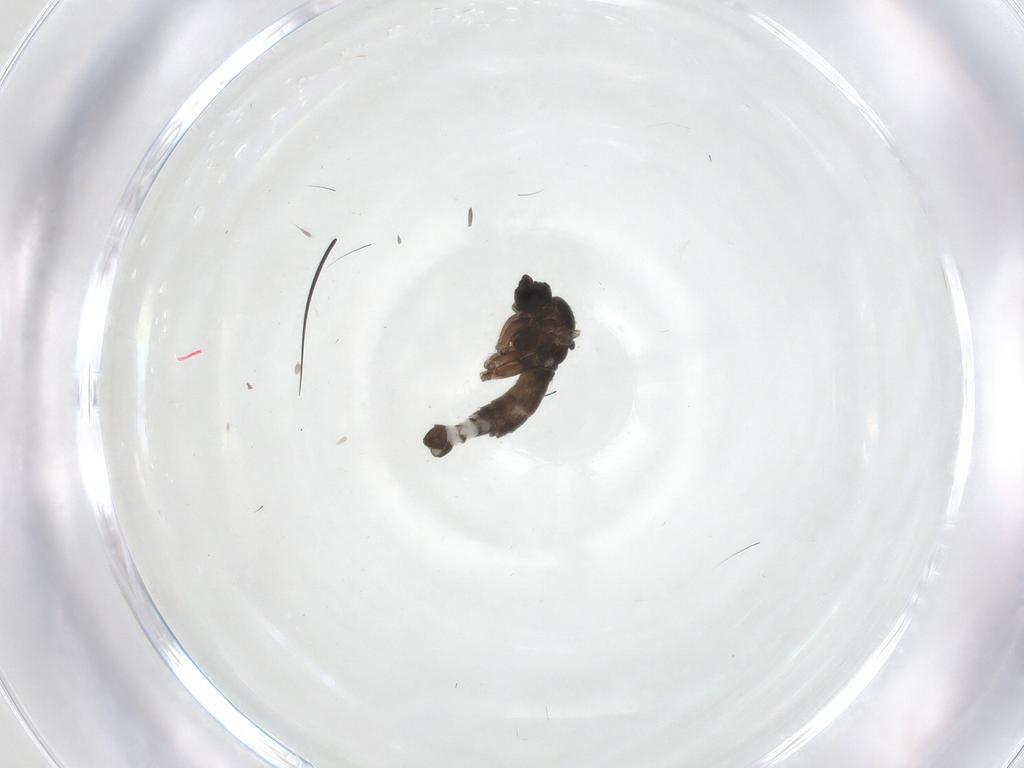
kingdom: Animalia
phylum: Arthropoda
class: Insecta
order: Diptera
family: Sciaridae
